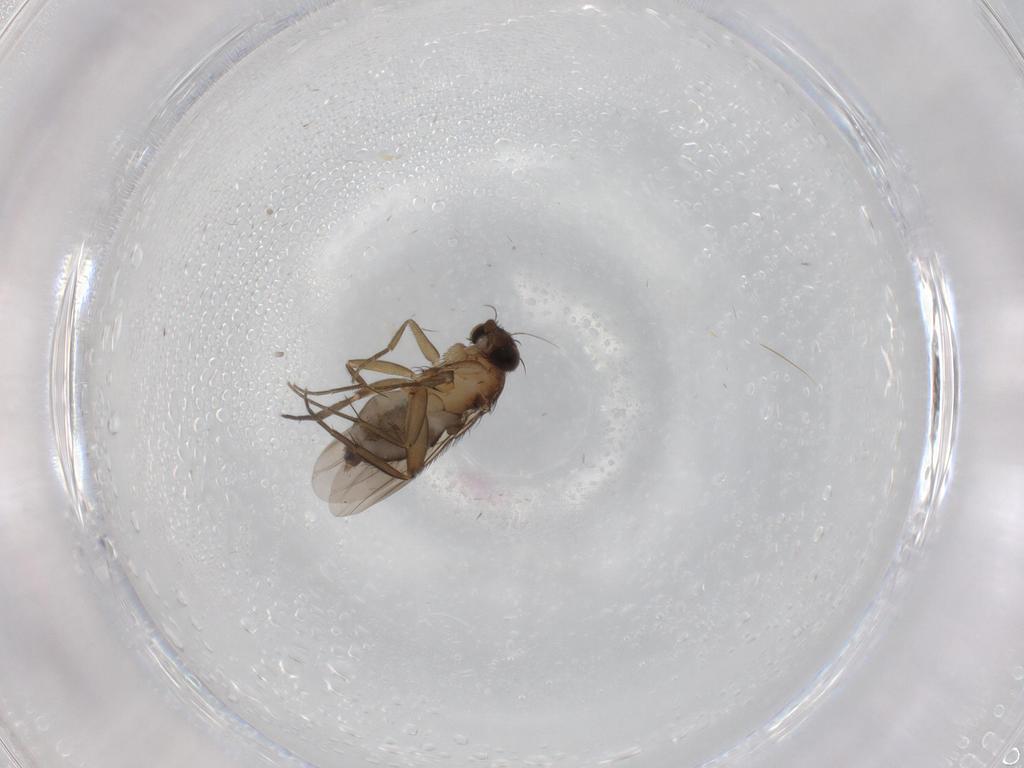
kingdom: Animalia
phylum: Arthropoda
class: Insecta
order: Diptera
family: Phoridae
